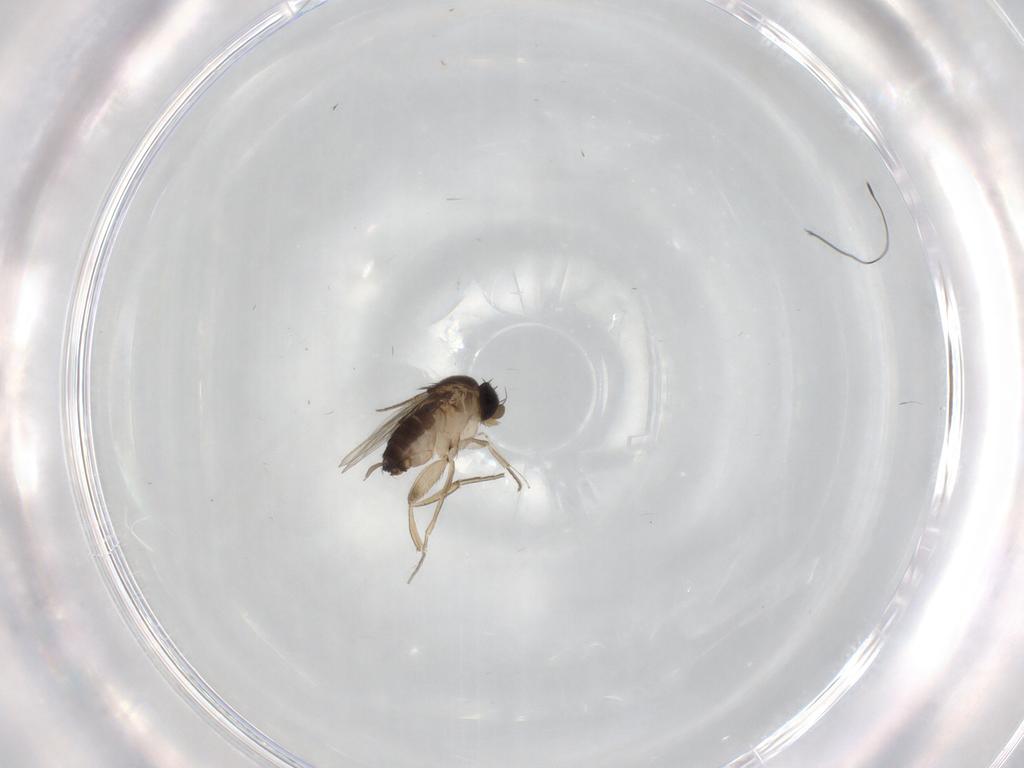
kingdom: Animalia
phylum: Arthropoda
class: Insecta
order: Diptera
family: Cecidomyiidae
